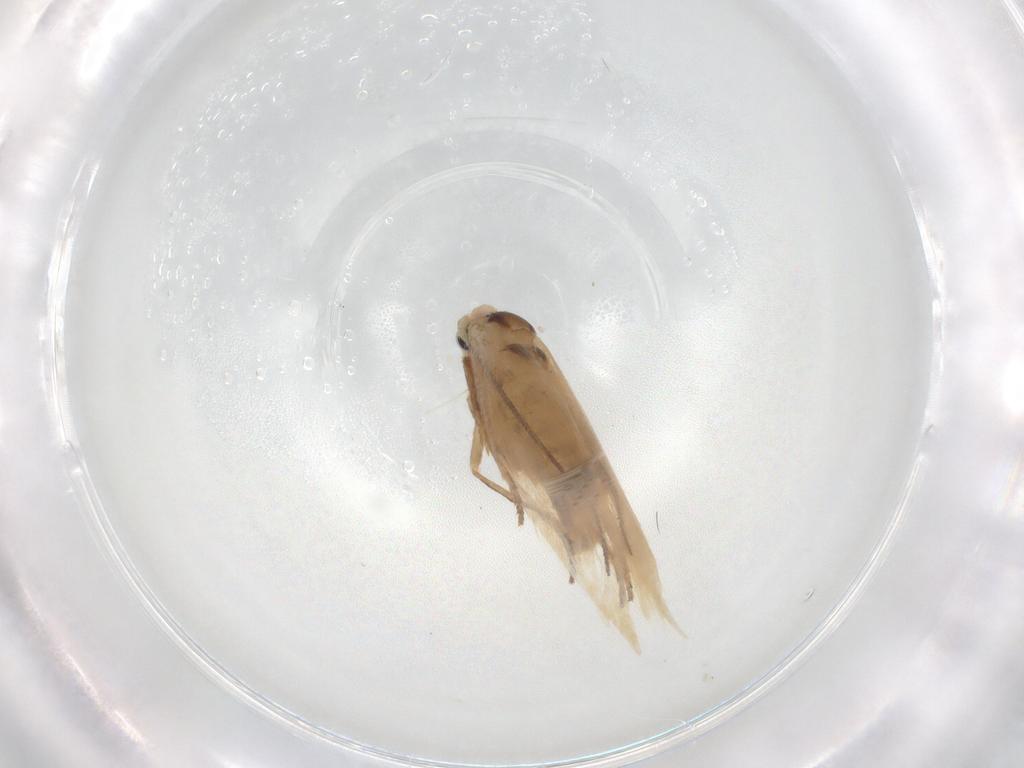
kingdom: Animalia
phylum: Arthropoda
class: Insecta
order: Lepidoptera
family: Gelechiidae
